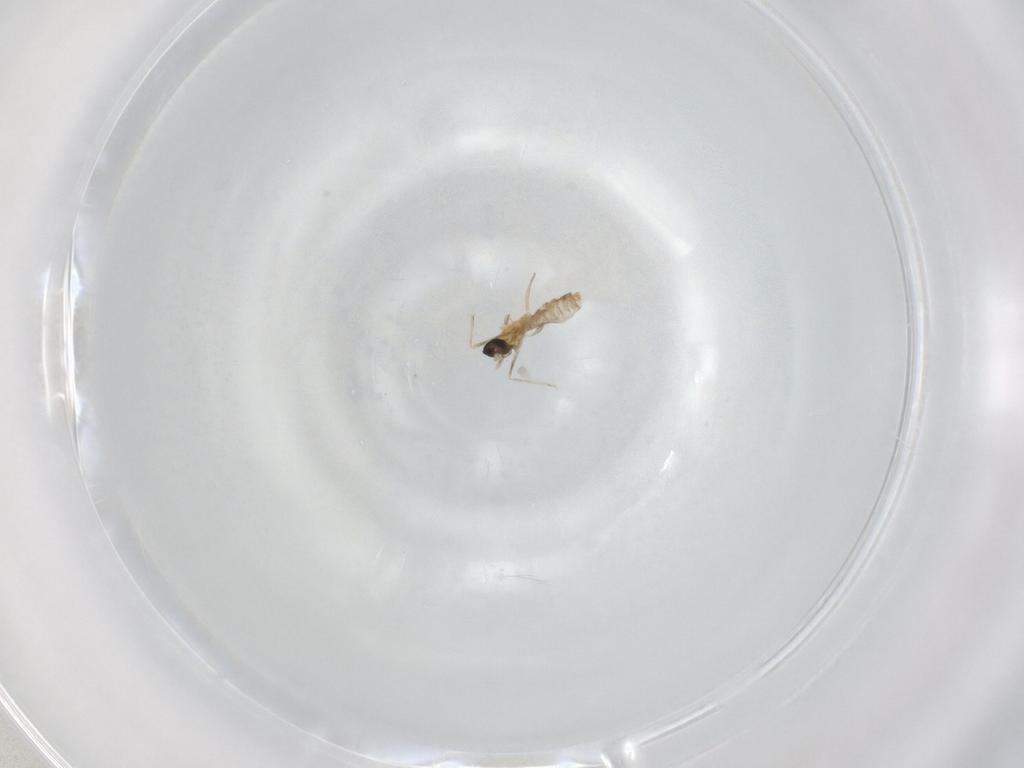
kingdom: Animalia
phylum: Arthropoda
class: Insecta
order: Diptera
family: Cecidomyiidae
